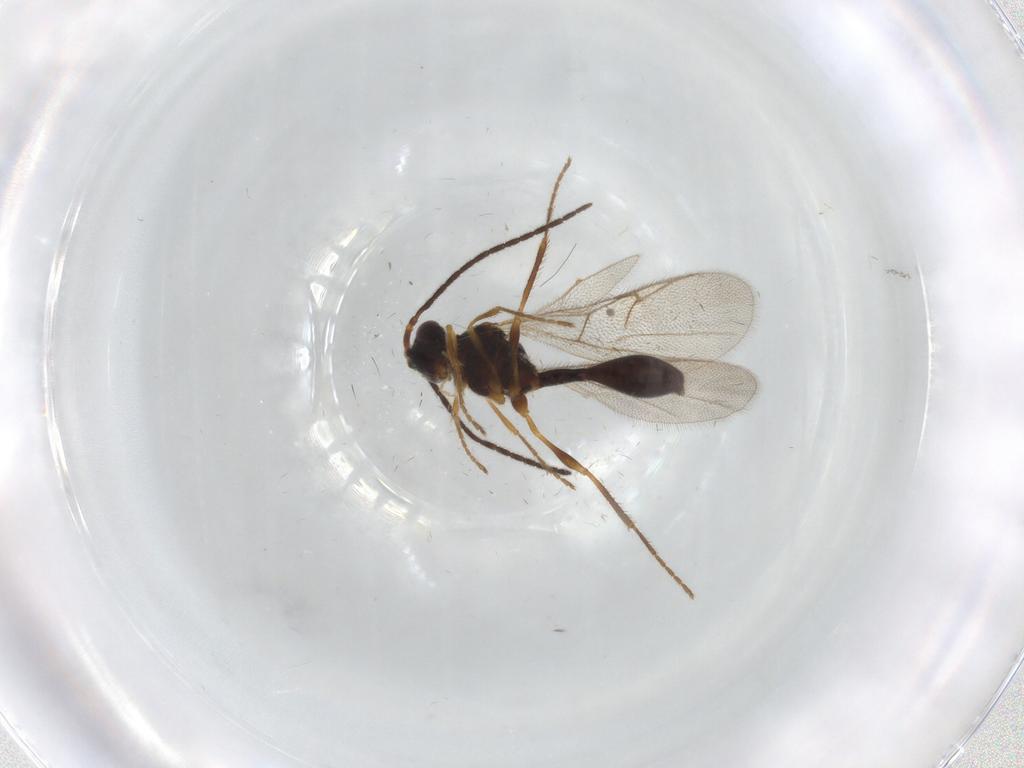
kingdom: Animalia
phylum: Arthropoda
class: Insecta
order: Hymenoptera
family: Diapriidae
